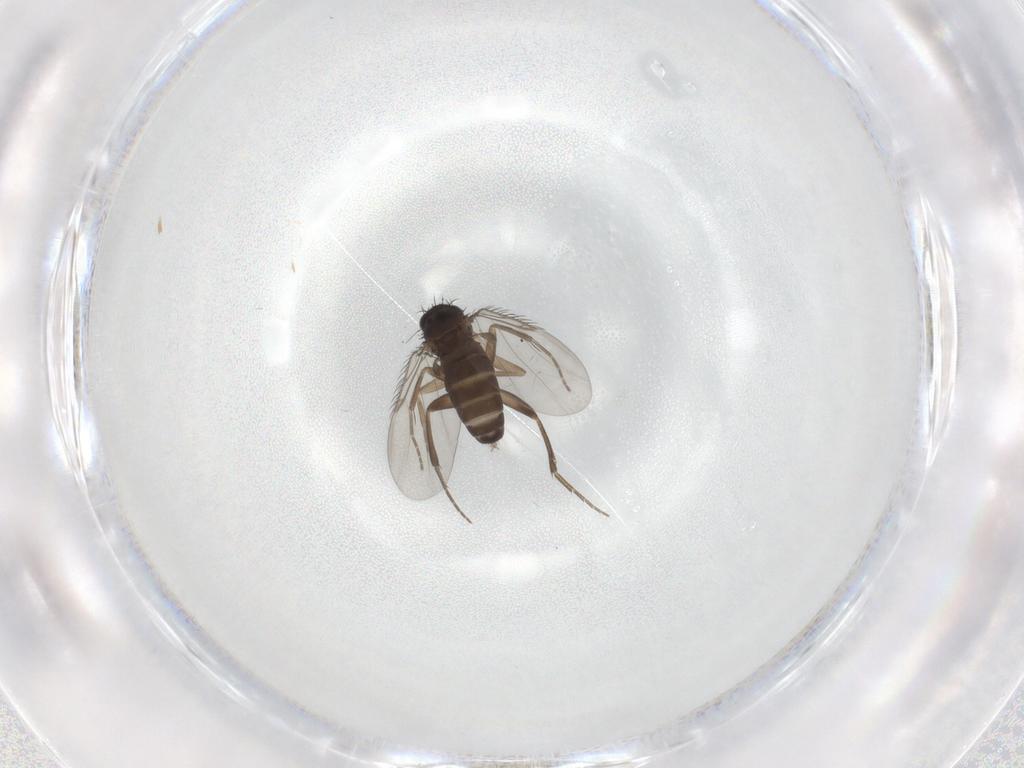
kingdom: Animalia
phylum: Arthropoda
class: Insecta
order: Diptera
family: Phoridae
